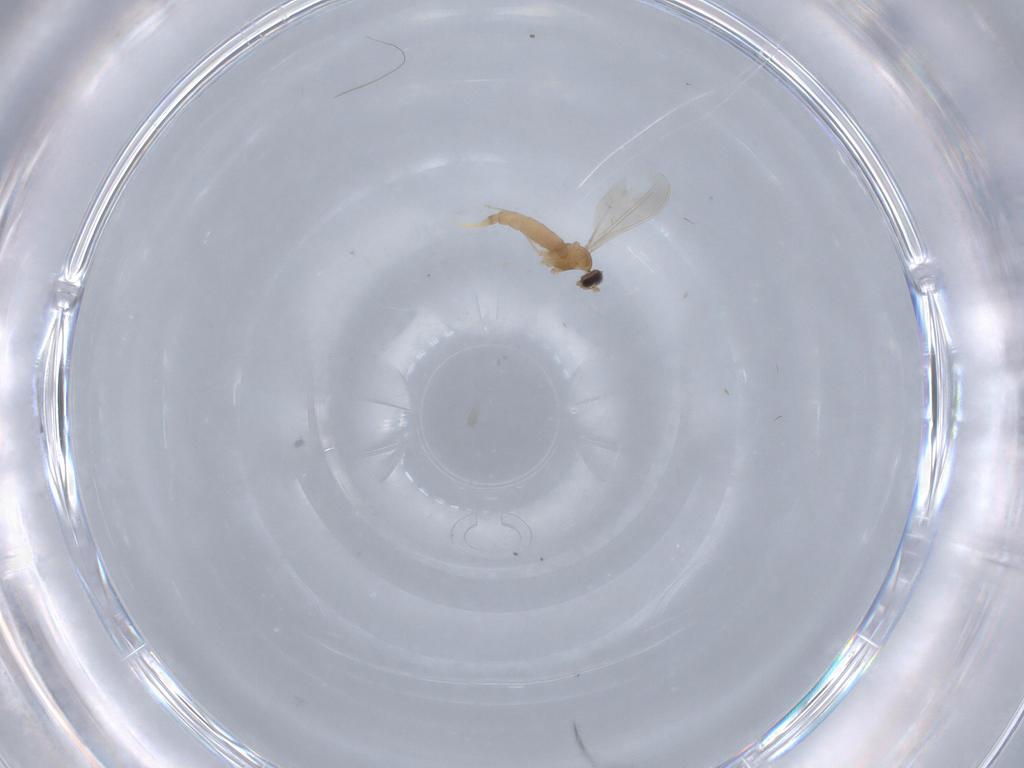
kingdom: Animalia
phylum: Arthropoda
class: Insecta
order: Diptera
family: Cecidomyiidae
